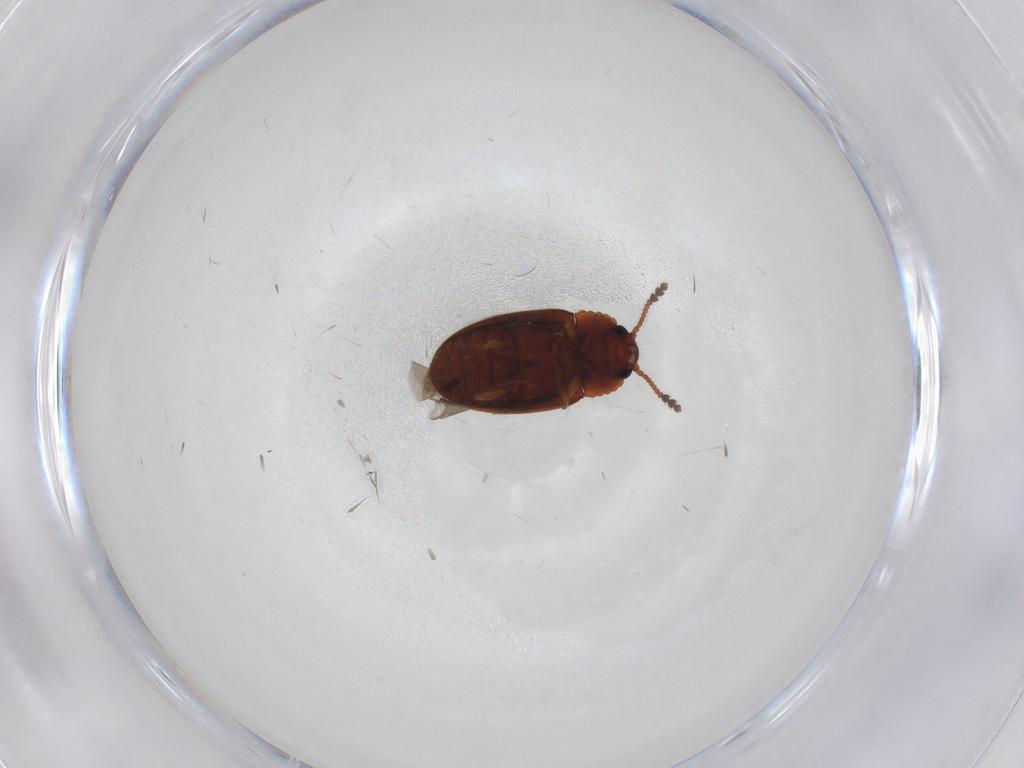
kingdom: Animalia
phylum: Arthropoda
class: Insecta
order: Coleoptera
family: Erotylidae
